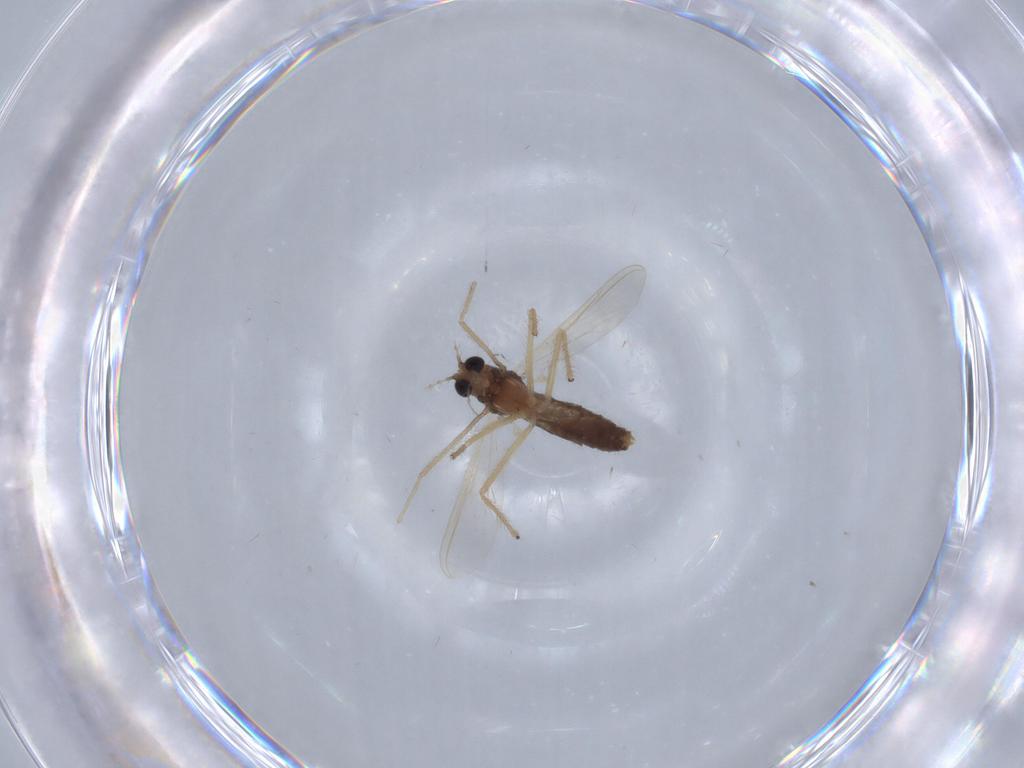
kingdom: Animalia
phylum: Arthropoda
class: Insecta
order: Diptera
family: Chironomidae
